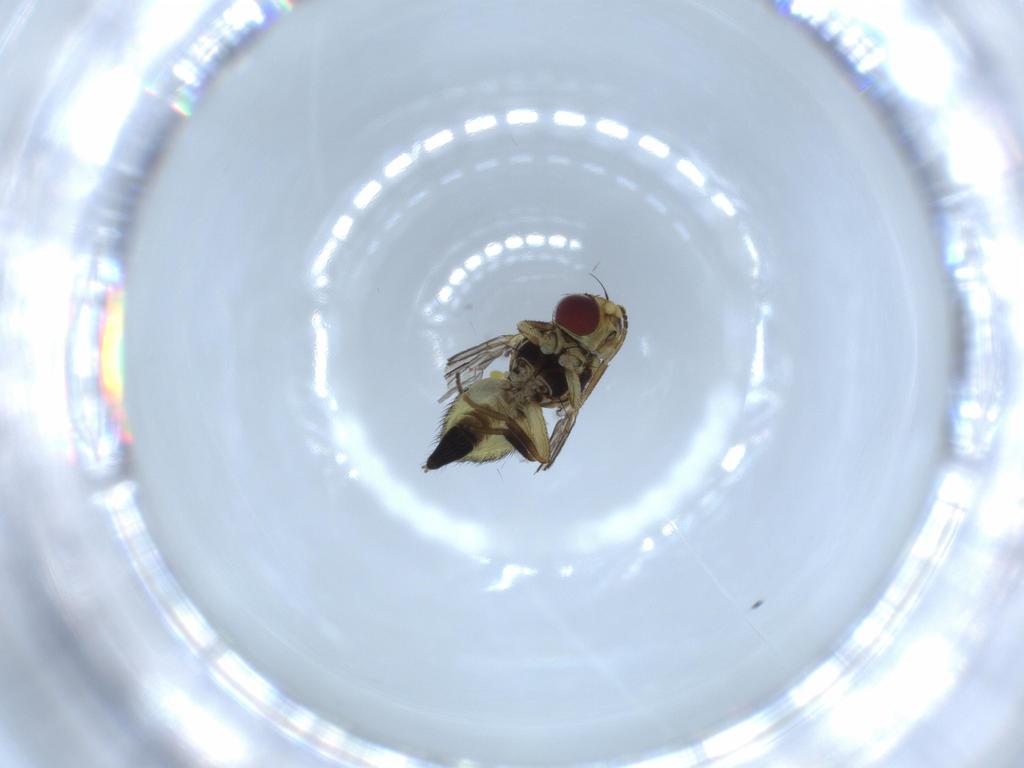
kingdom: Animalia
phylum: Arthropoda
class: Insecta
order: Diptera
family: Agromyzidae
